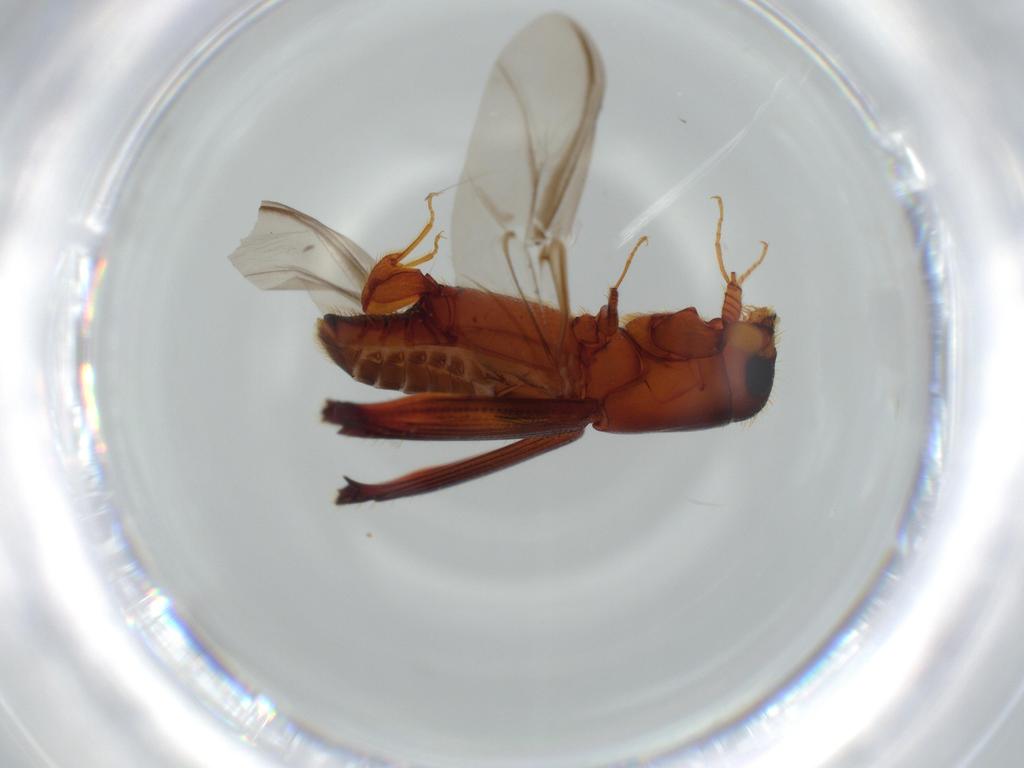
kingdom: Animalia
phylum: Arthropoda
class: Insecta
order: Coleoptera
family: Curculionidae
